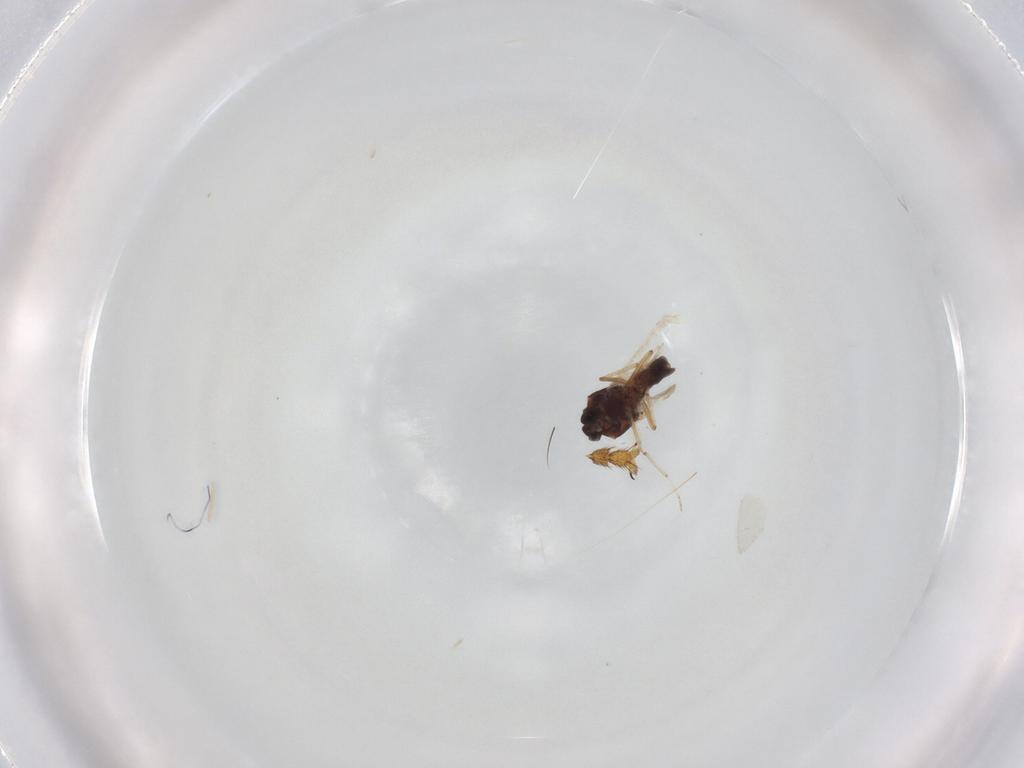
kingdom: Animalia
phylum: Arthropoda
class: Insecta
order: Diptera
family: Syrphidae
